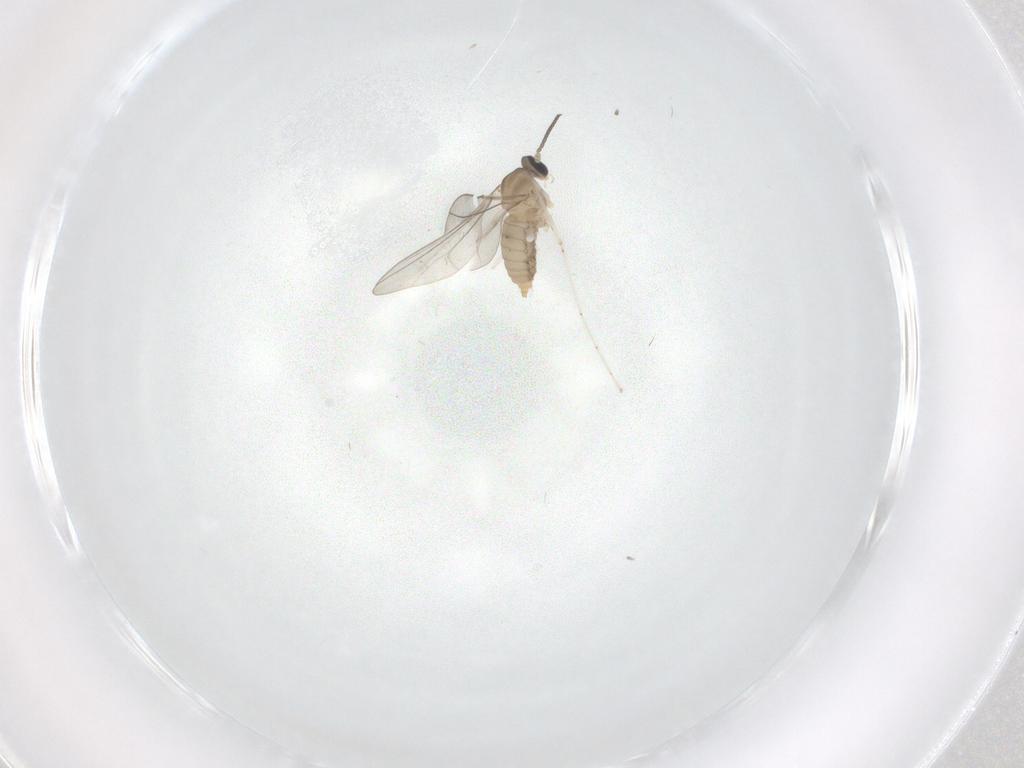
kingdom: Animalia
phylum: Arthropoda
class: Insecta
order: Diptera
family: Cecidomyiidae
